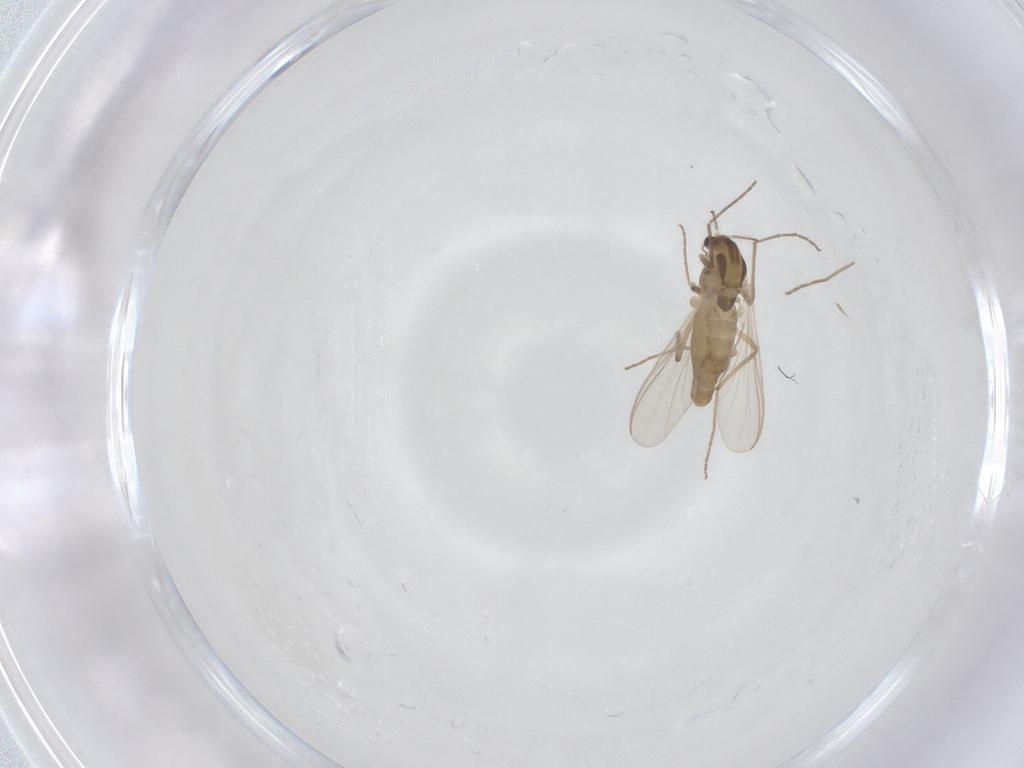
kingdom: Animalia
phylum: Arthropoda
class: Insecta
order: Diptera
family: Chironomidae
